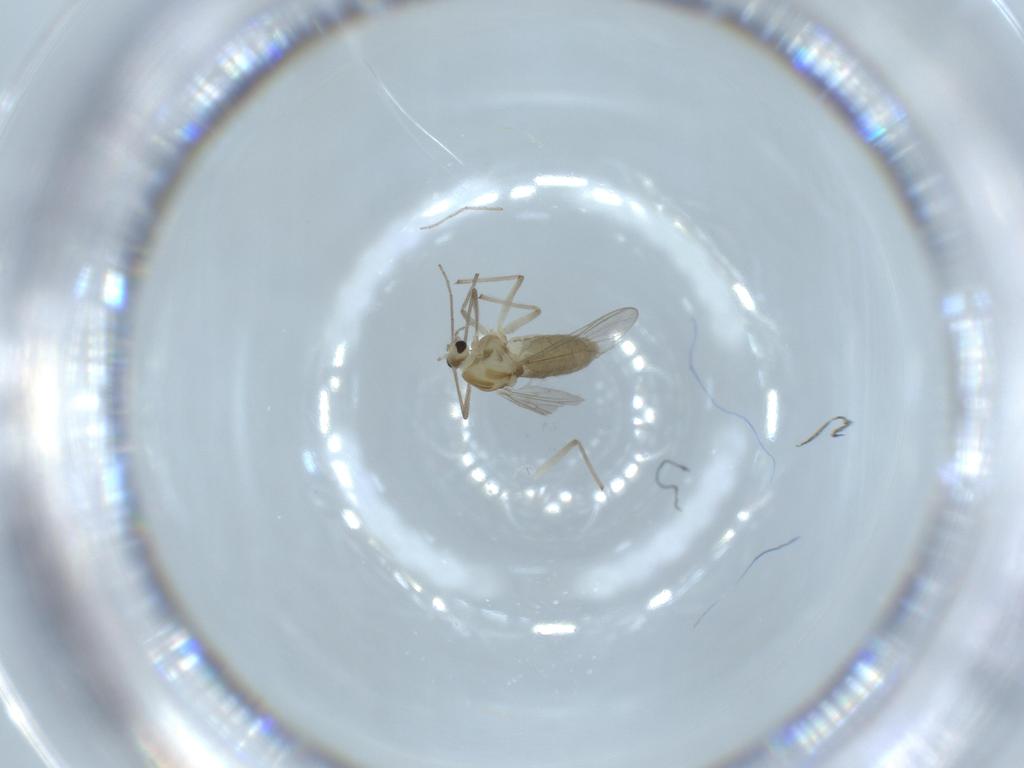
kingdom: Animalia
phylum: Arthropoda
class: Insecta
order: Diptera
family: Chironomidae
